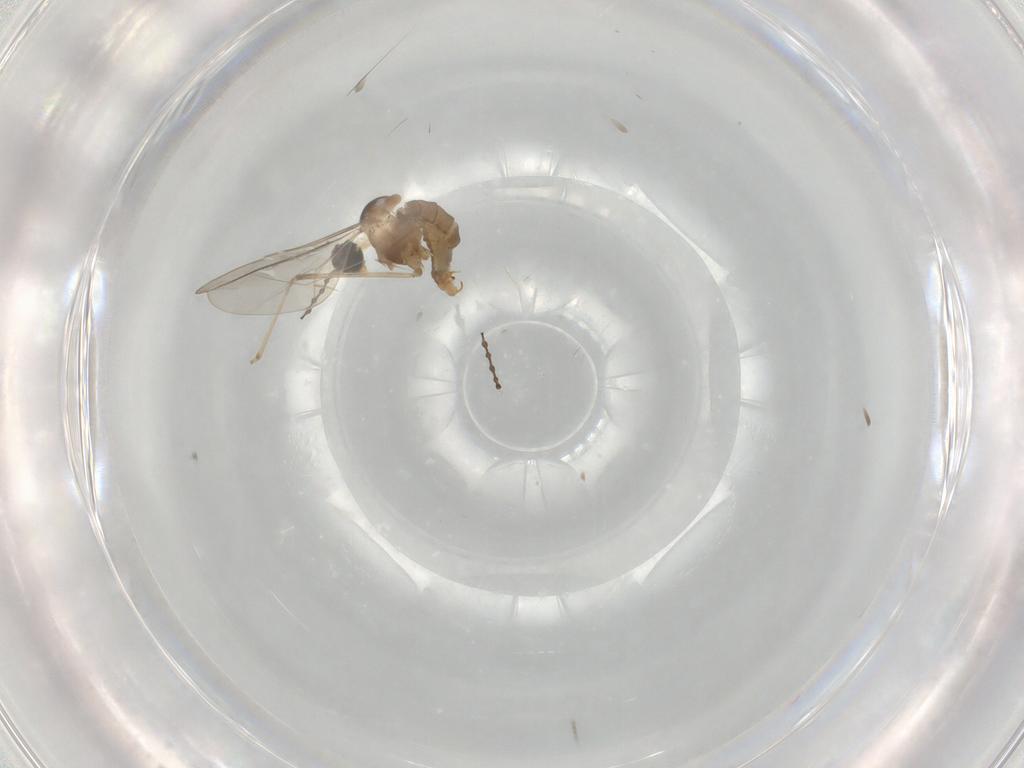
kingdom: Animalia
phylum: Arthropoda
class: Insecta
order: Diptera
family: Cecidomyiidae
